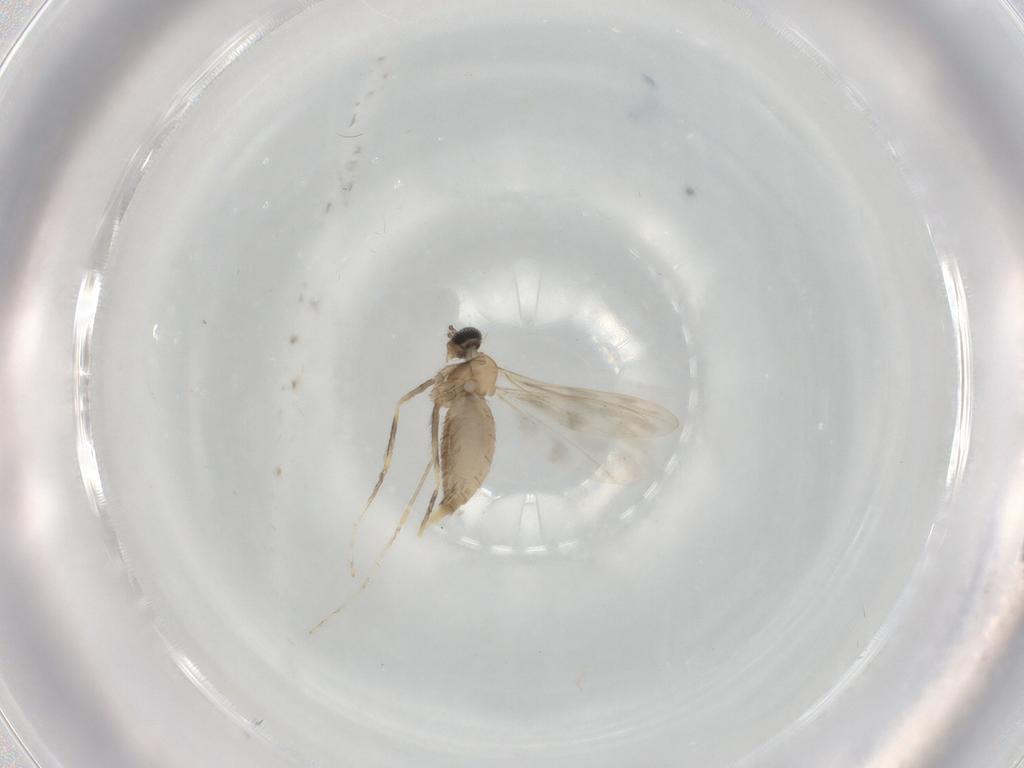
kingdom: Animalia
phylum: Arthropoda
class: Insecta
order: Diptera
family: Cecidomyiidae
